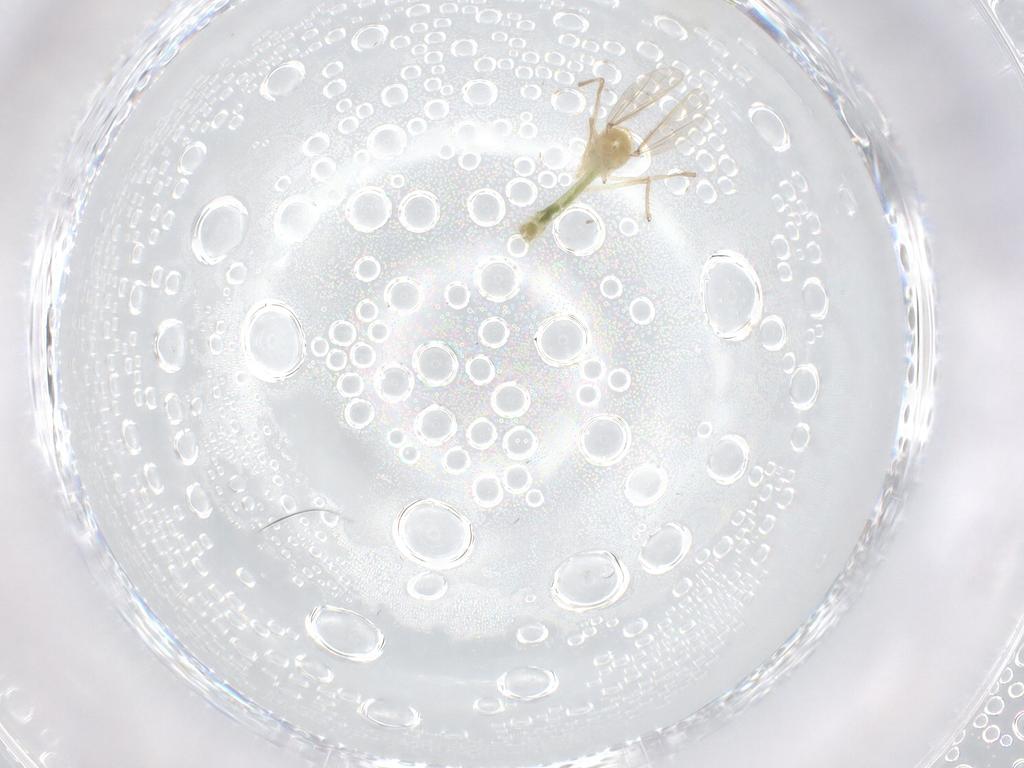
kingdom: Animalia
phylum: Arthropoda
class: Insecta
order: Diptera
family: Chironomidae
